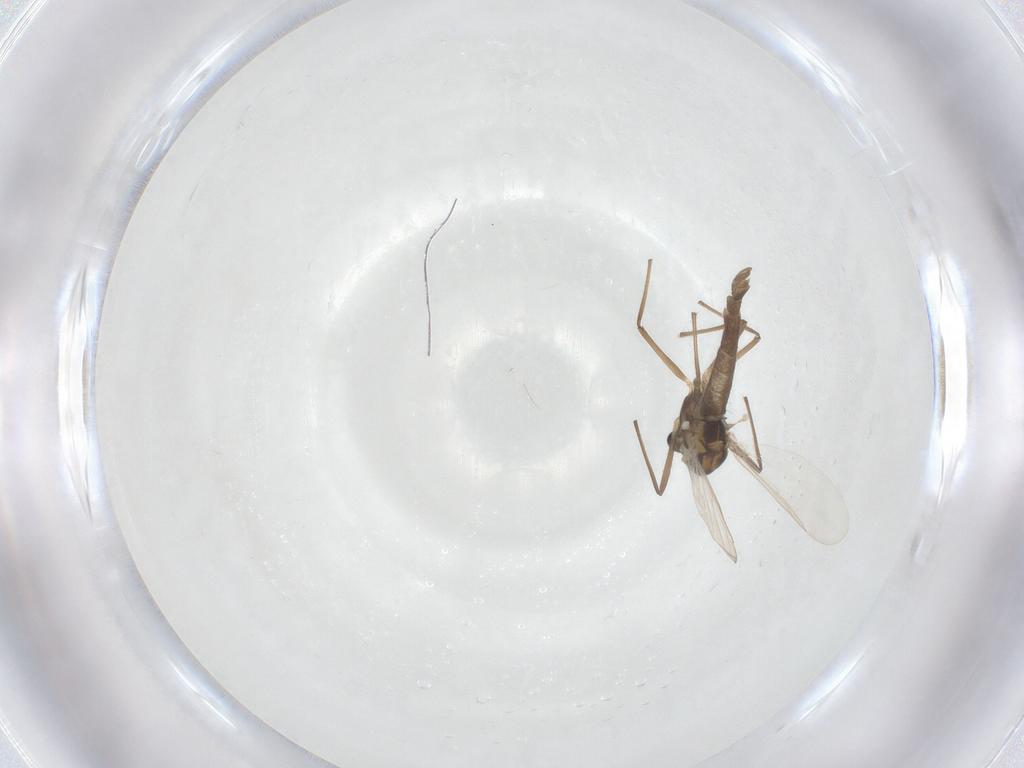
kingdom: Animalia
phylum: Arthropoda
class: Insecta
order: Diptera
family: Chironomidae
